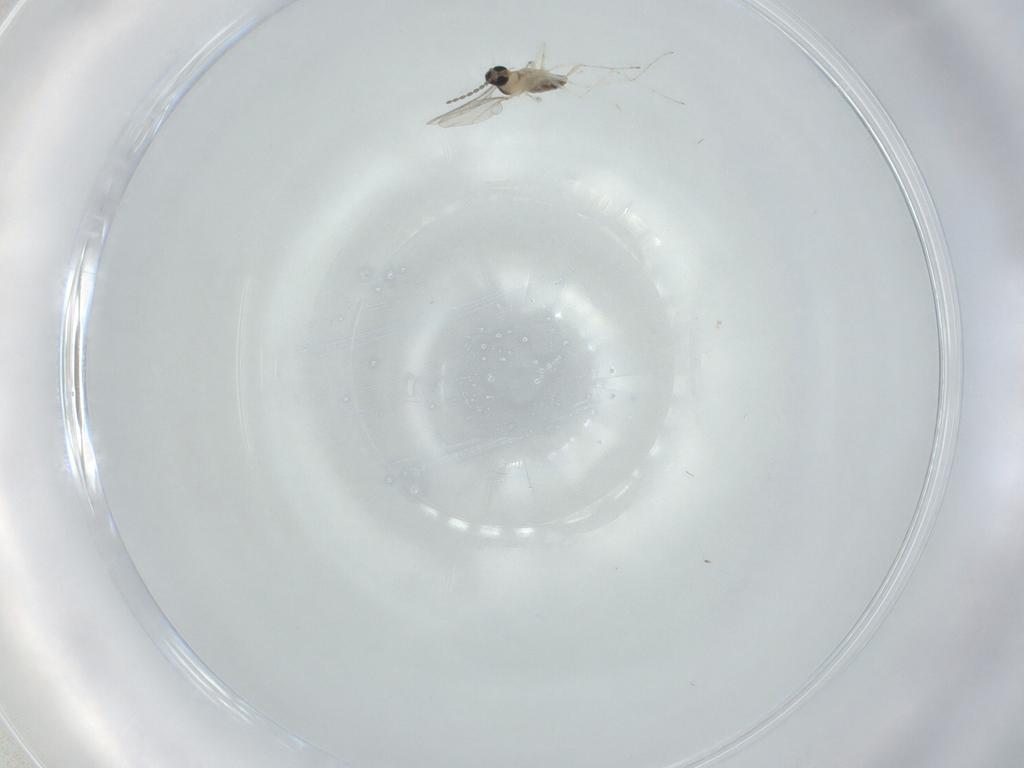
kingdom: Animalia
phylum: Arthropoda
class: Insecta
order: Diptera
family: Cecidomyiidae
